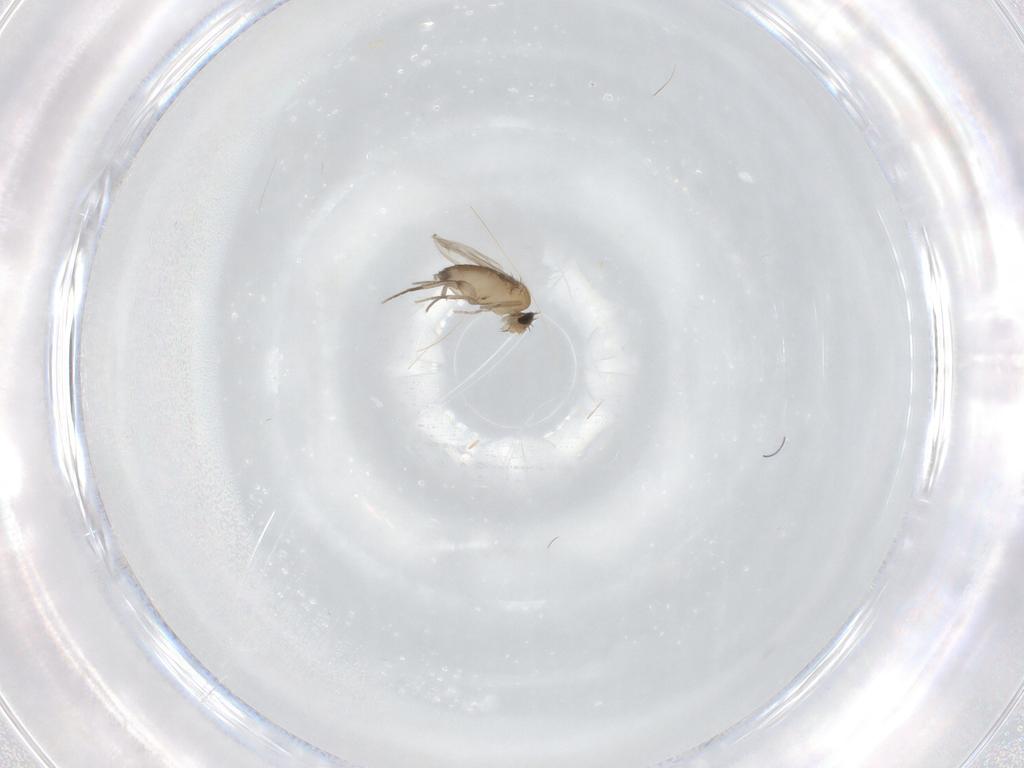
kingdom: Animalia
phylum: Arthropoda
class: Insecta
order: Diptera
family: Phoridae
